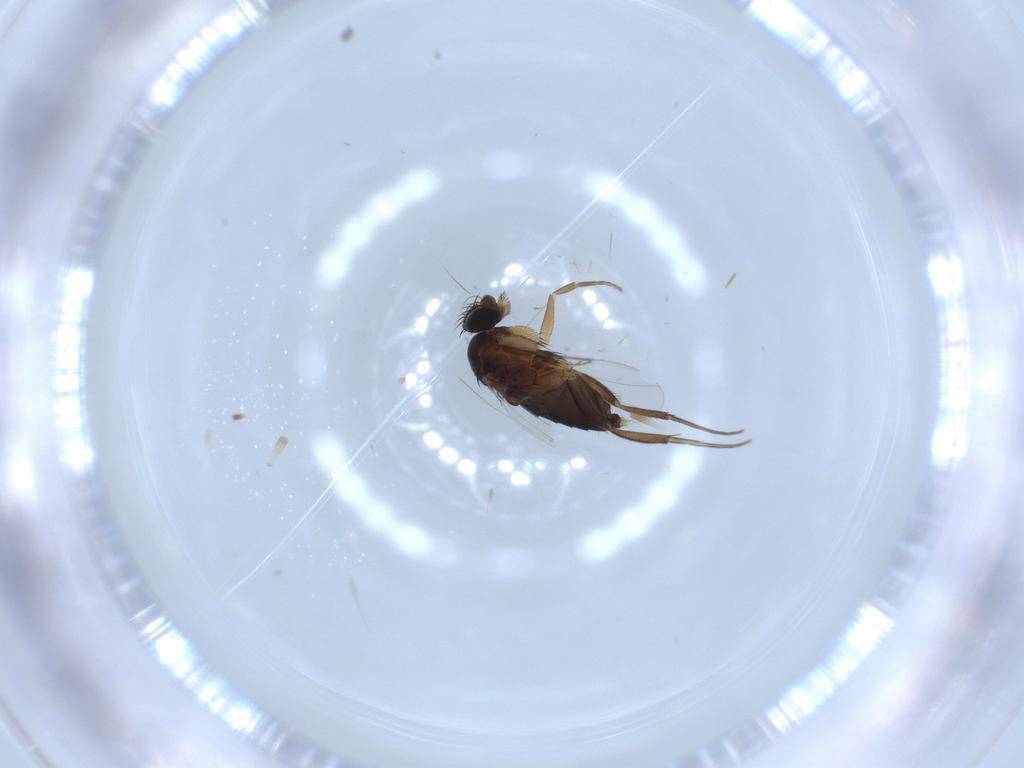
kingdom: Animalia
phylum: Arthropoda
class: Insecta
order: Diptera
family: Phoridae
